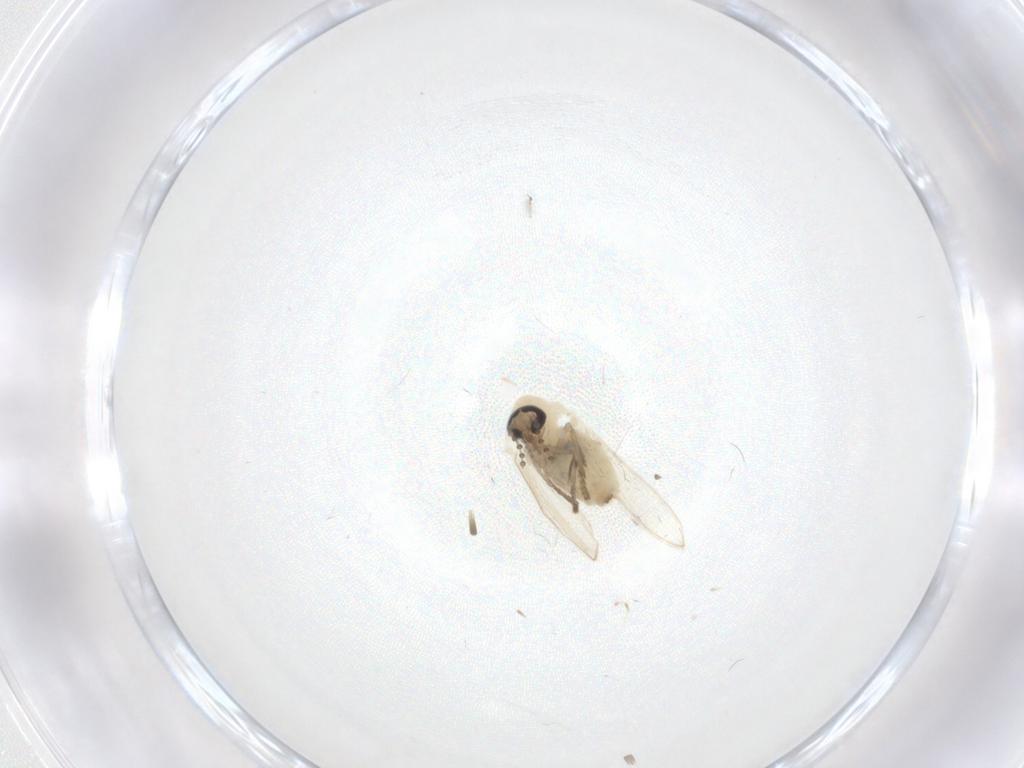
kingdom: Animalia
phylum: Arthropoda
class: Insecta
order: Diptera
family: Psychodidae
